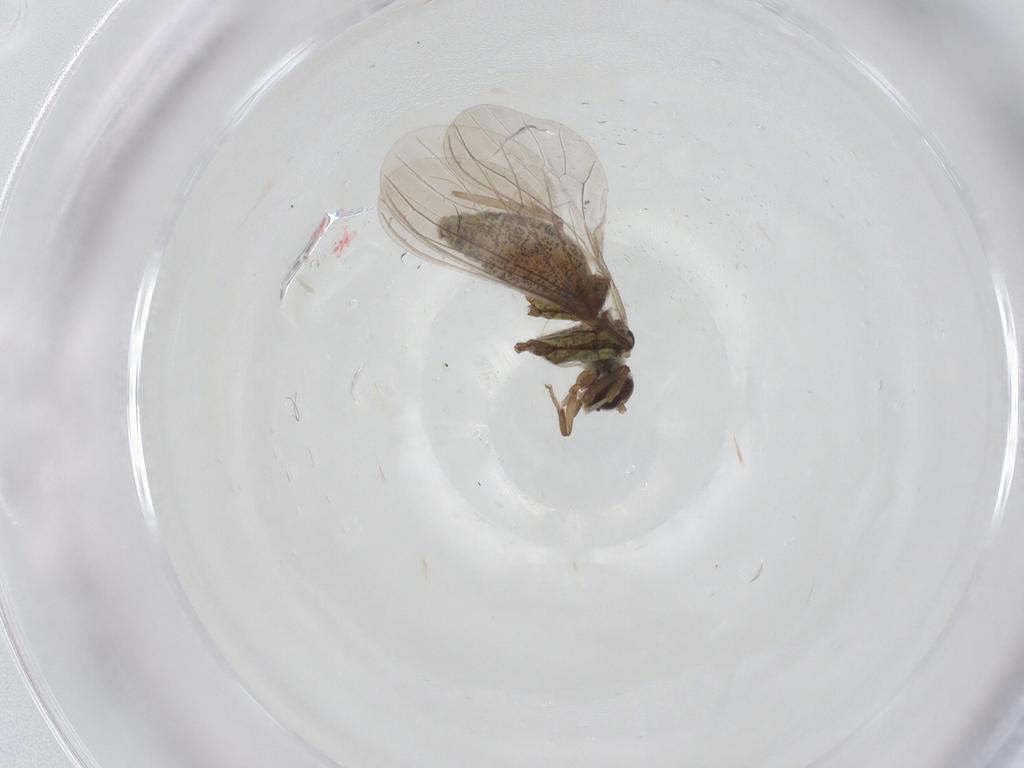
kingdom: Animalia
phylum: Arthropoda
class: Insecta
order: Neuroptera
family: Coniopterygidae
